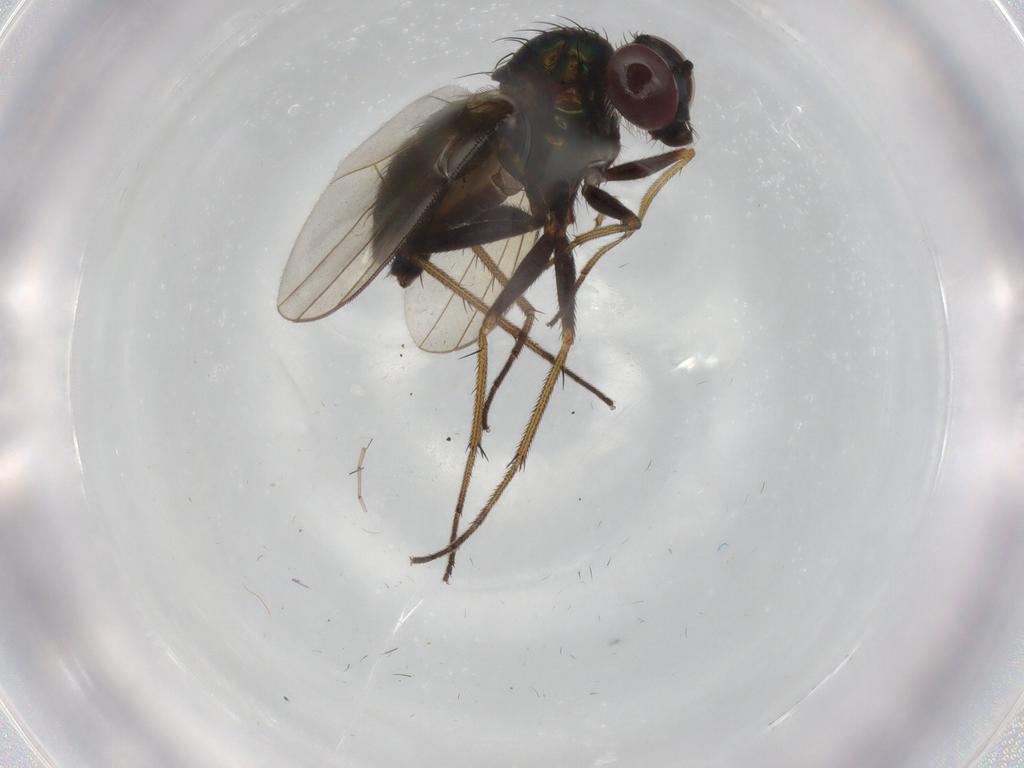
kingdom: Animalia
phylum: Arthropoda
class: Insecta
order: Diptera
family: Dolichopodidae
